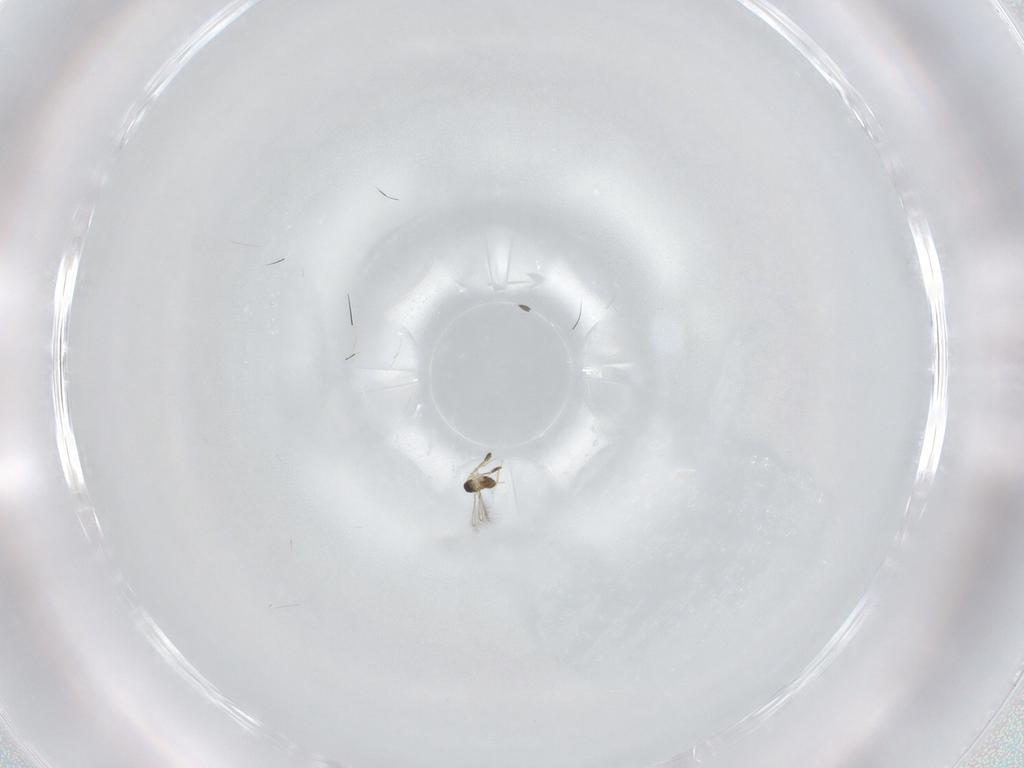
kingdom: Animalia
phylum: Arthropoda
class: Insecta
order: Hymenoptera
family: Mymaridae
